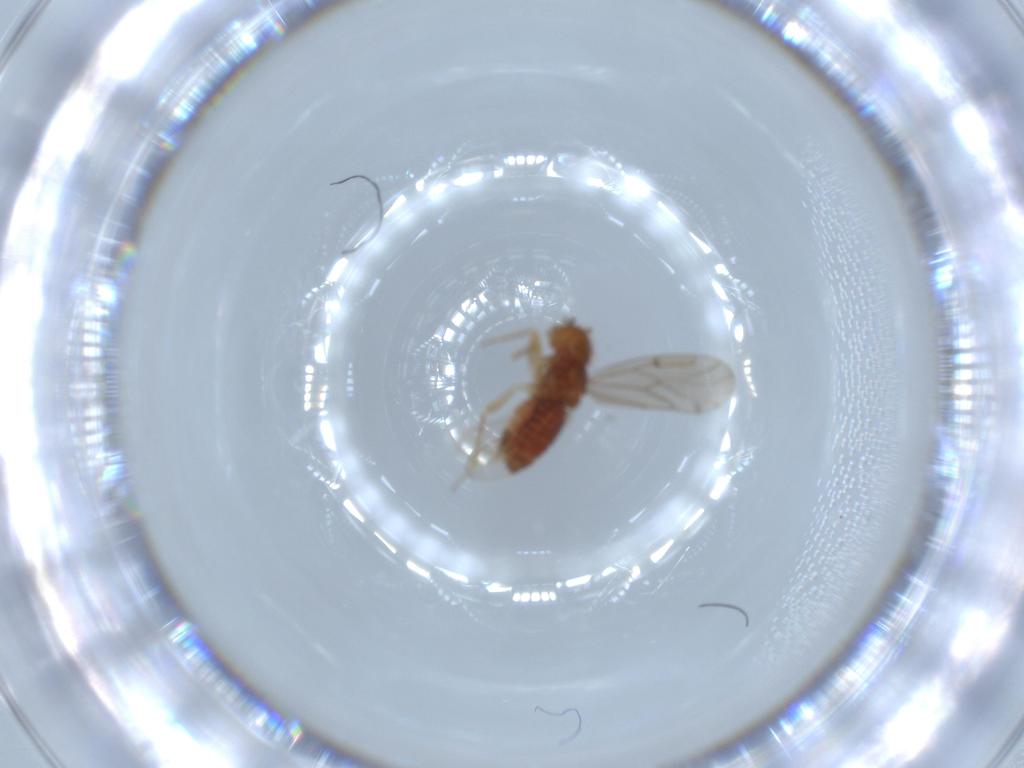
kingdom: Animalia
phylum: Arthropoda
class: Insecta
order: Psocodea
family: Ectopsocidae
